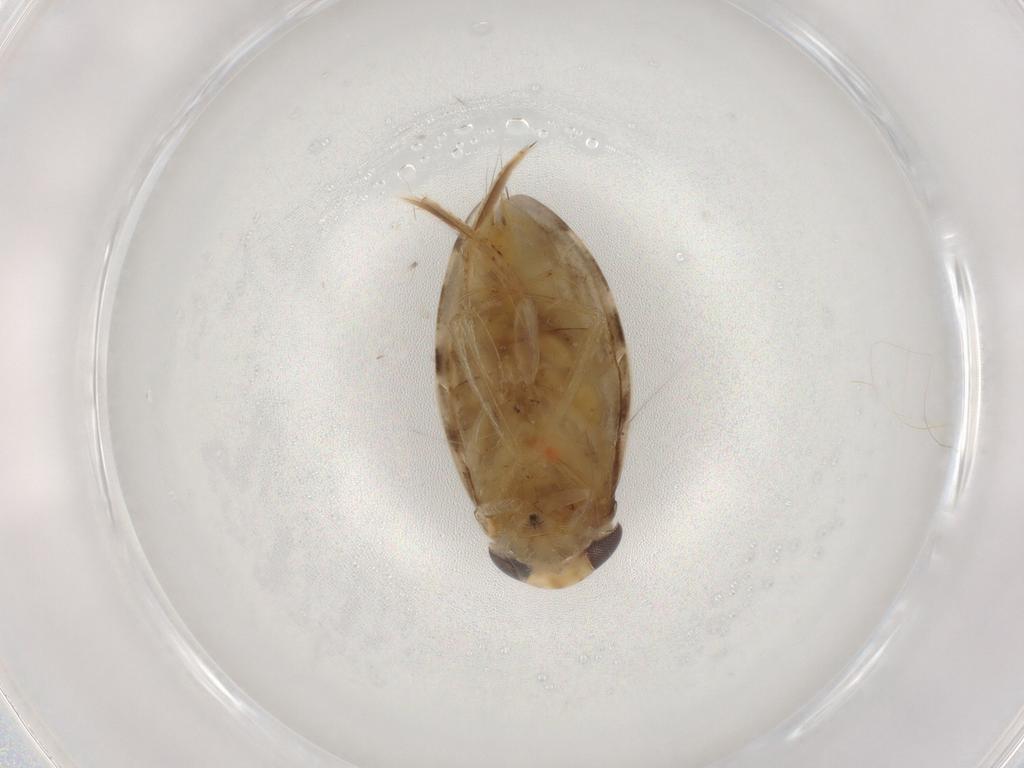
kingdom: Animalia
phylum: Arthropoda
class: Insecta
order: Hemiptera
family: Corixidae
